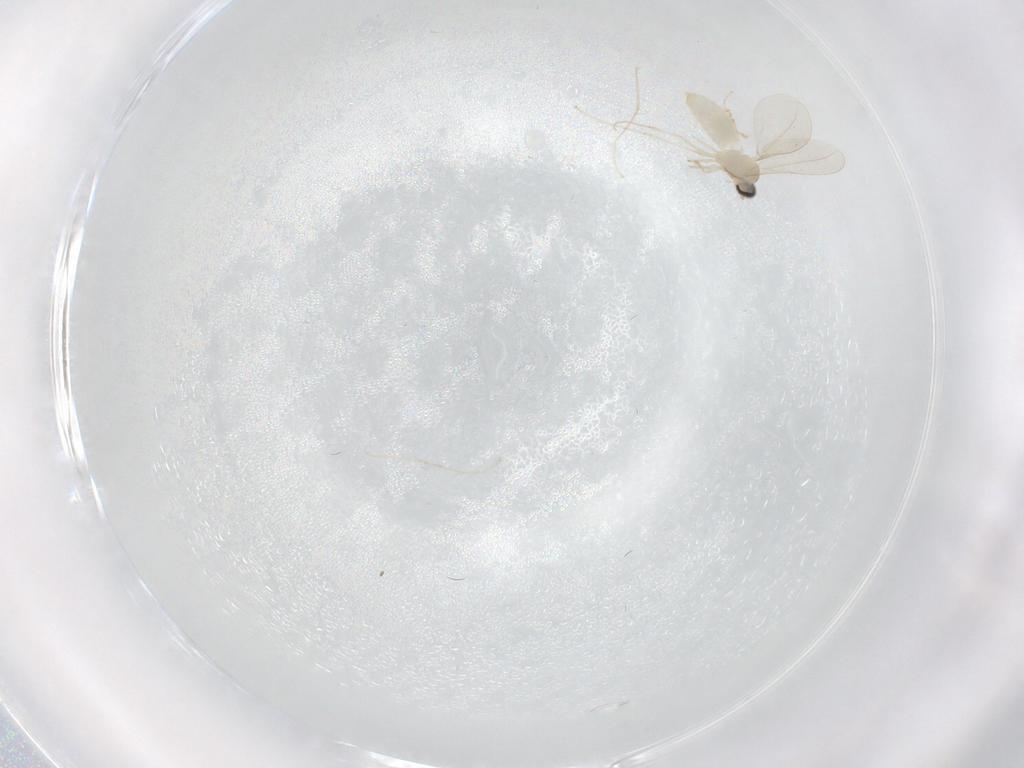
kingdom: Animalia
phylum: Arthropoda
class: Insecta
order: Diptera
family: Cecidomyiidae
